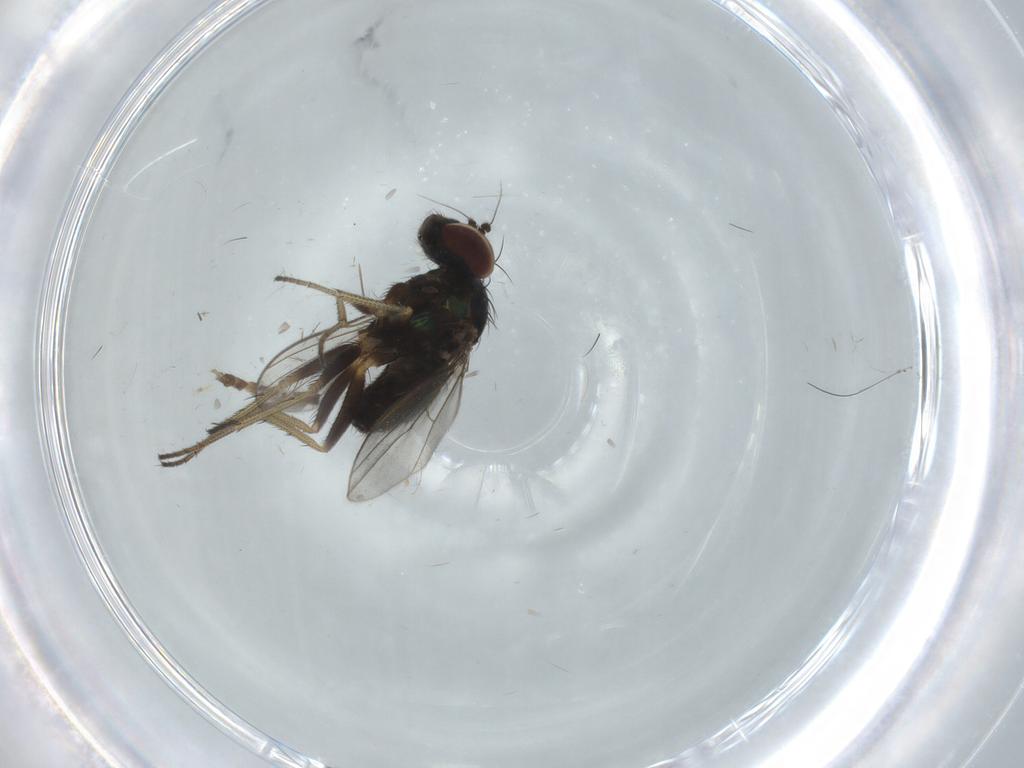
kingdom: Animalia
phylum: Arthropoda
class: Insecta
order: Diptera
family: Chironomidae
